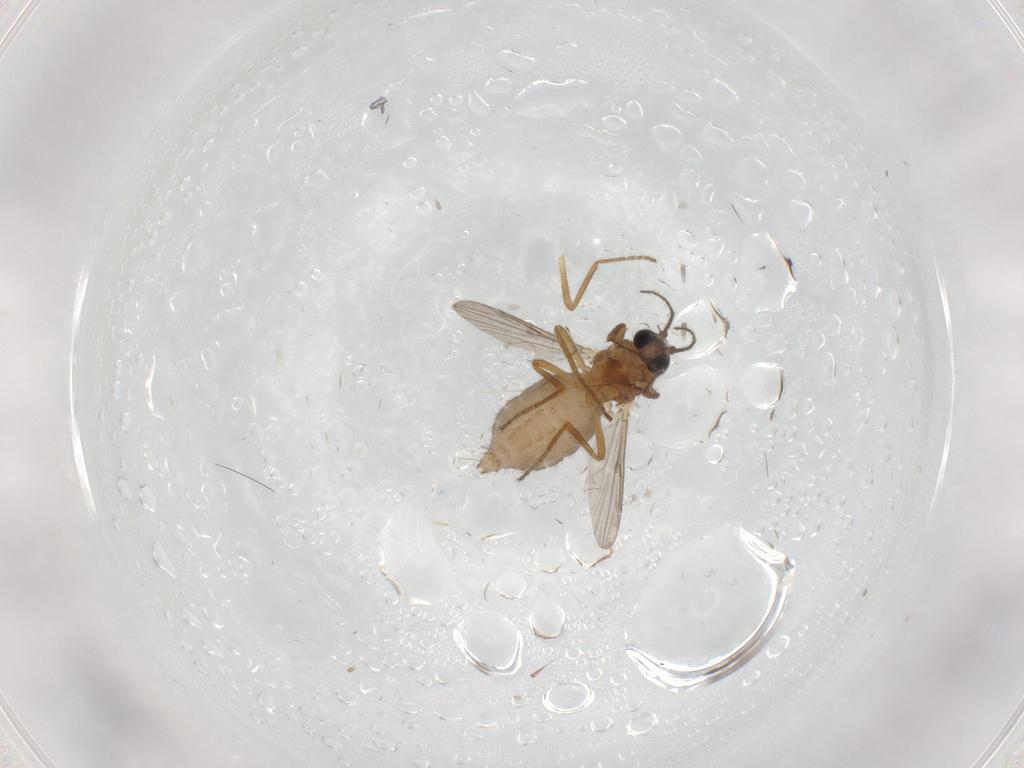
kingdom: Animalia
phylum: Arthropoda
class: Insecta
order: Diptera
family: Ceratopogonidae
